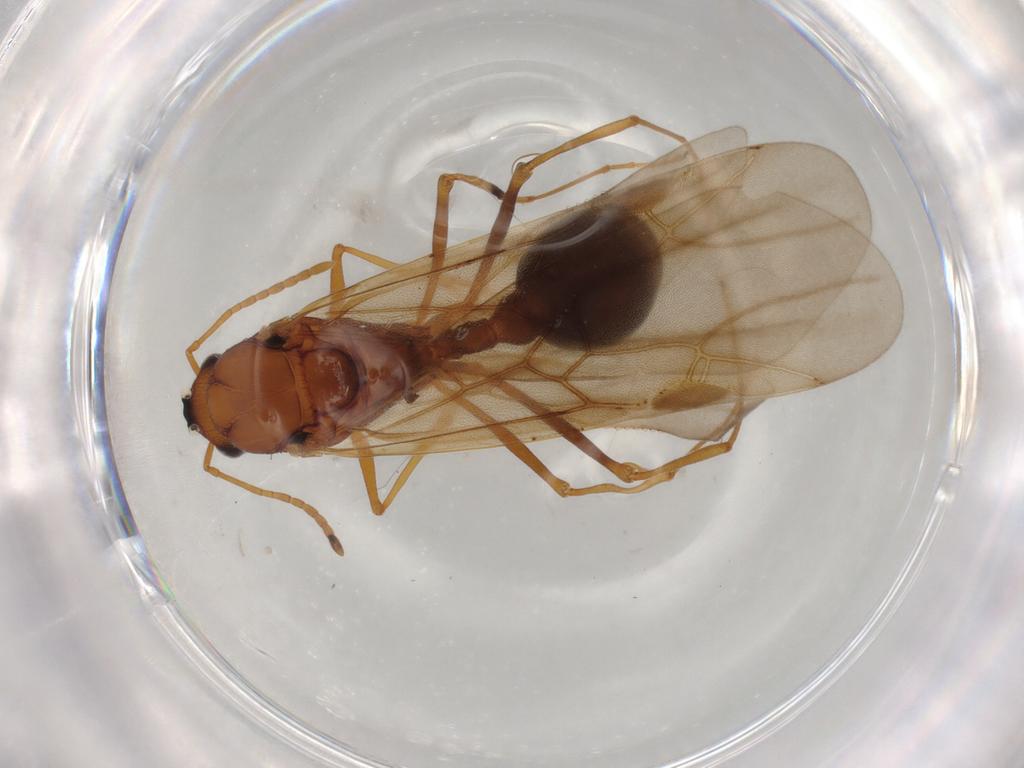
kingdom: Animalia
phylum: Arthropoda
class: Insecta
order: Hymenoptera
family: Formicidae
